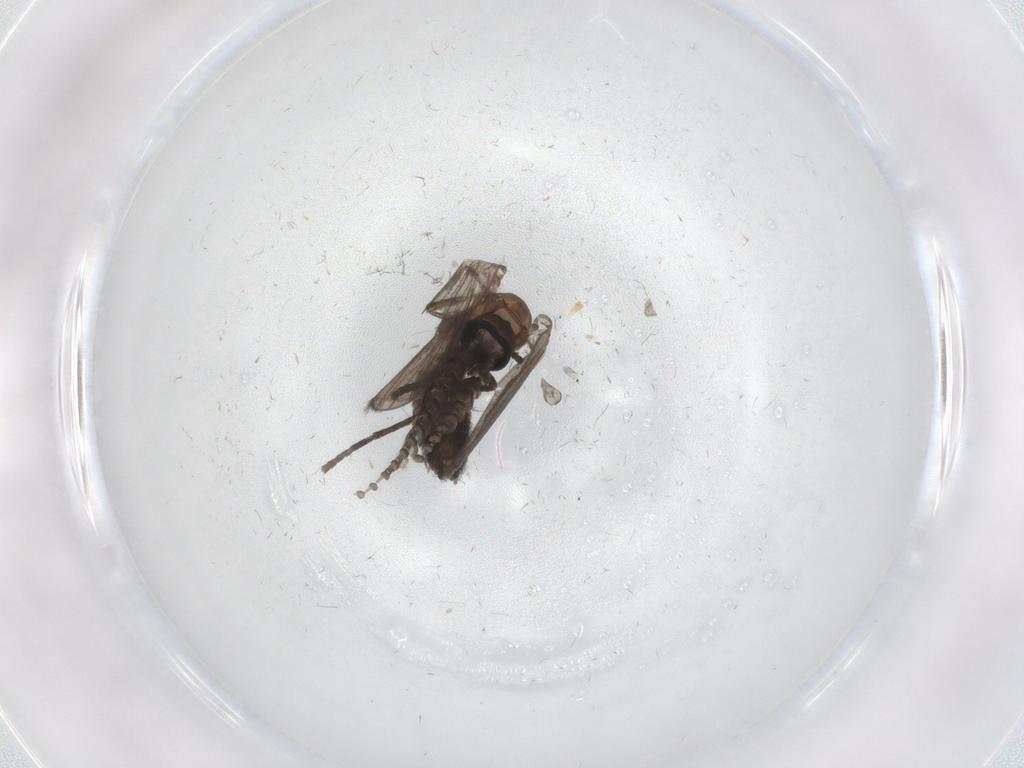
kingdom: Animalia
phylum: Arthropoda
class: Insecta
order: Diptera
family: Psychodidae
